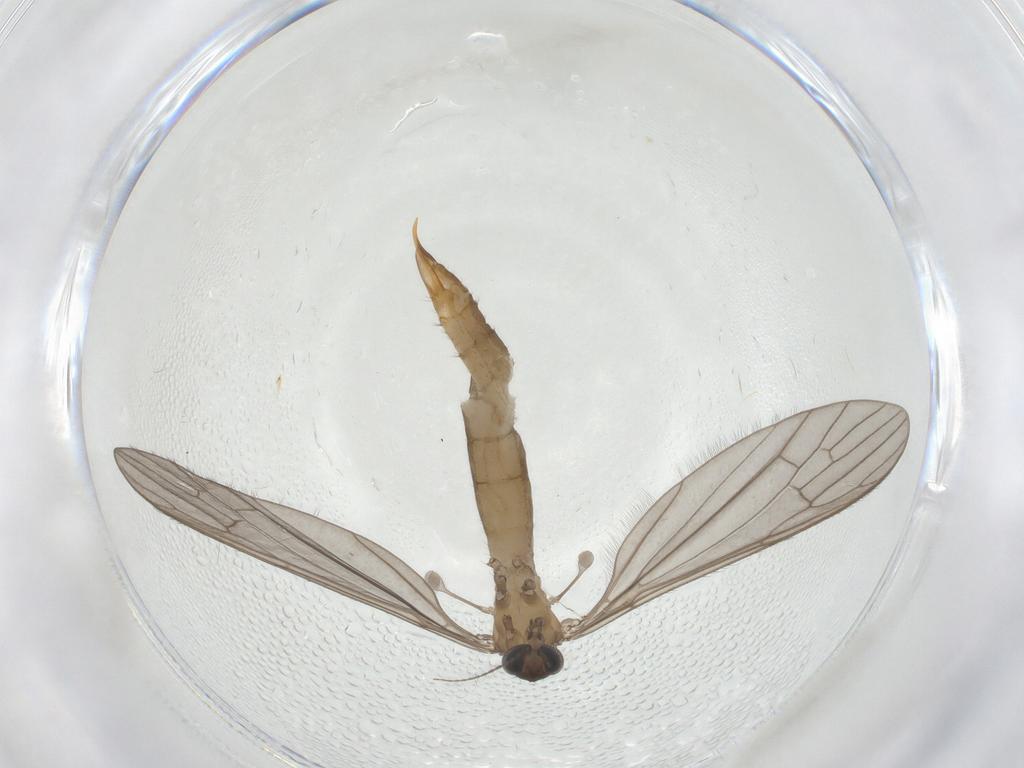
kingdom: Animalia
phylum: Arthropoda
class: Insecta
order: Diptera
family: Limoniidae
